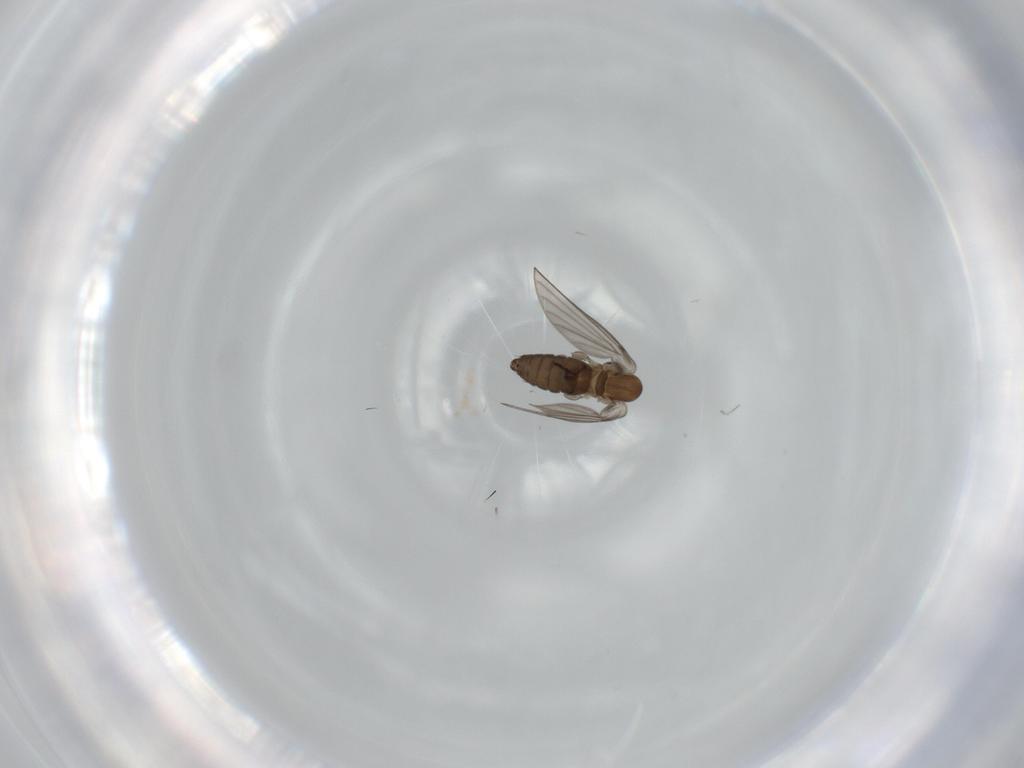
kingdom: Animalia
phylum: Arthropoda
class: Insecta
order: Diptera
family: Psychodidae
